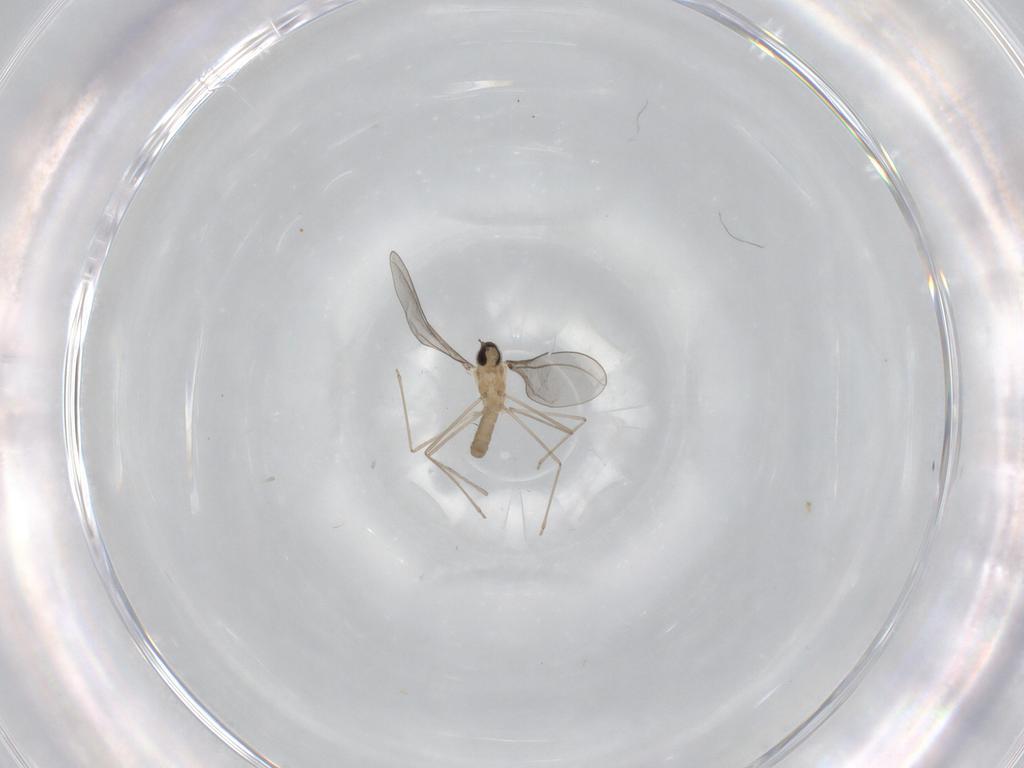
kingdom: Animalia
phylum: Arthropoda
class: Insecta
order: Diptera
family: Cecidomyiidae
